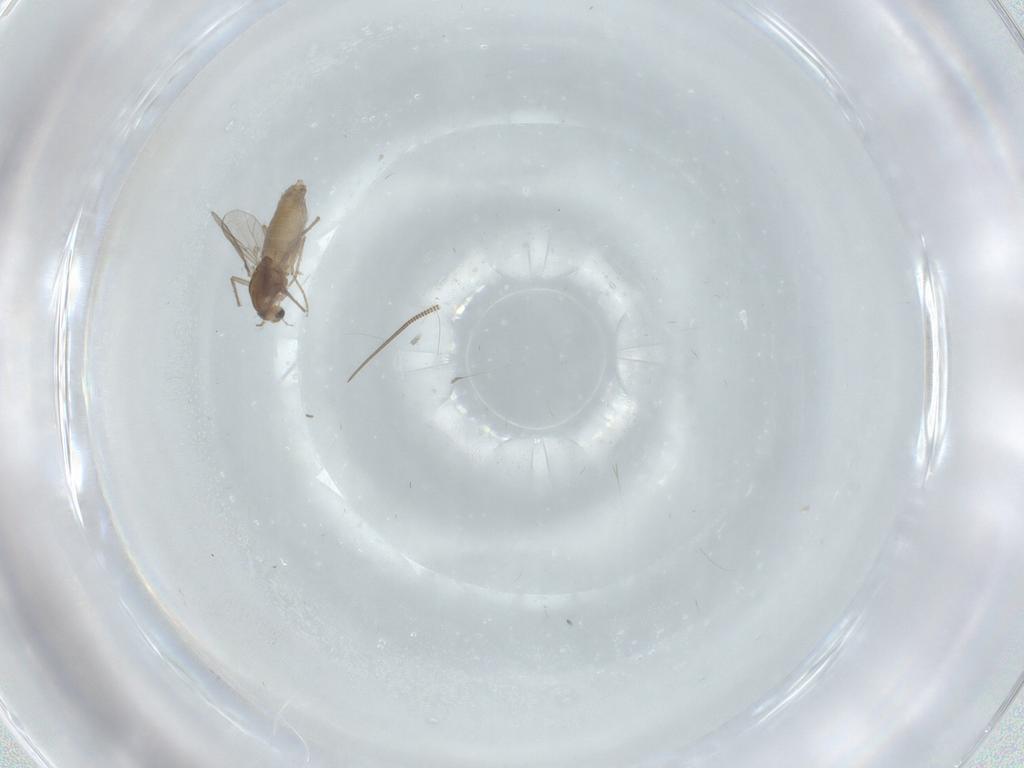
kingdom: Animalia
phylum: Arthropoda
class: Insecta
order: Diptera
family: Chironomidae
